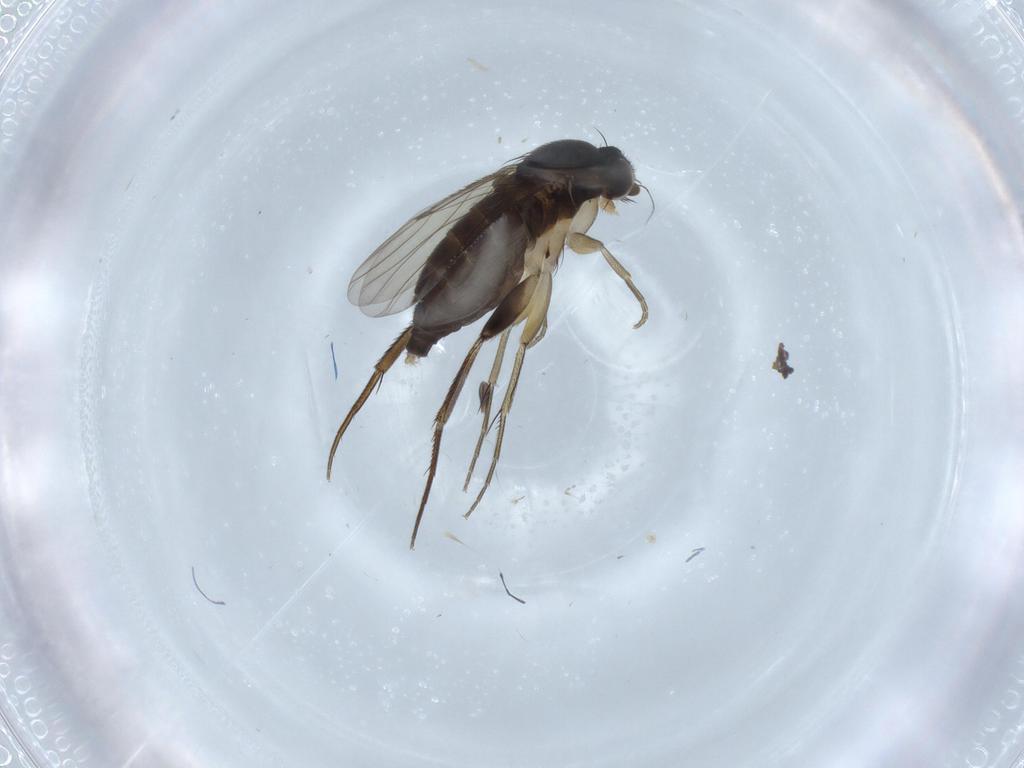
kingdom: Animalia
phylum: Arthropoda
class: Insecta
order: Diptera
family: Phoridae
